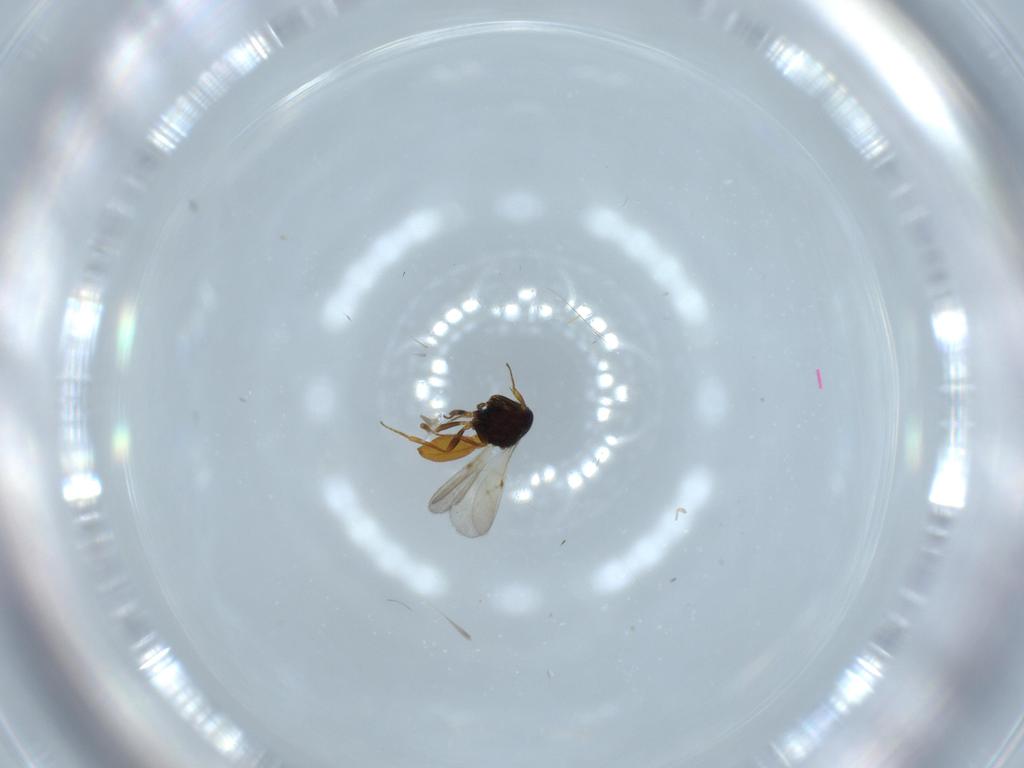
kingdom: Animalia
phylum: Arthropoda
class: Insecta
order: Hymenoptera
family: Scelionidae
